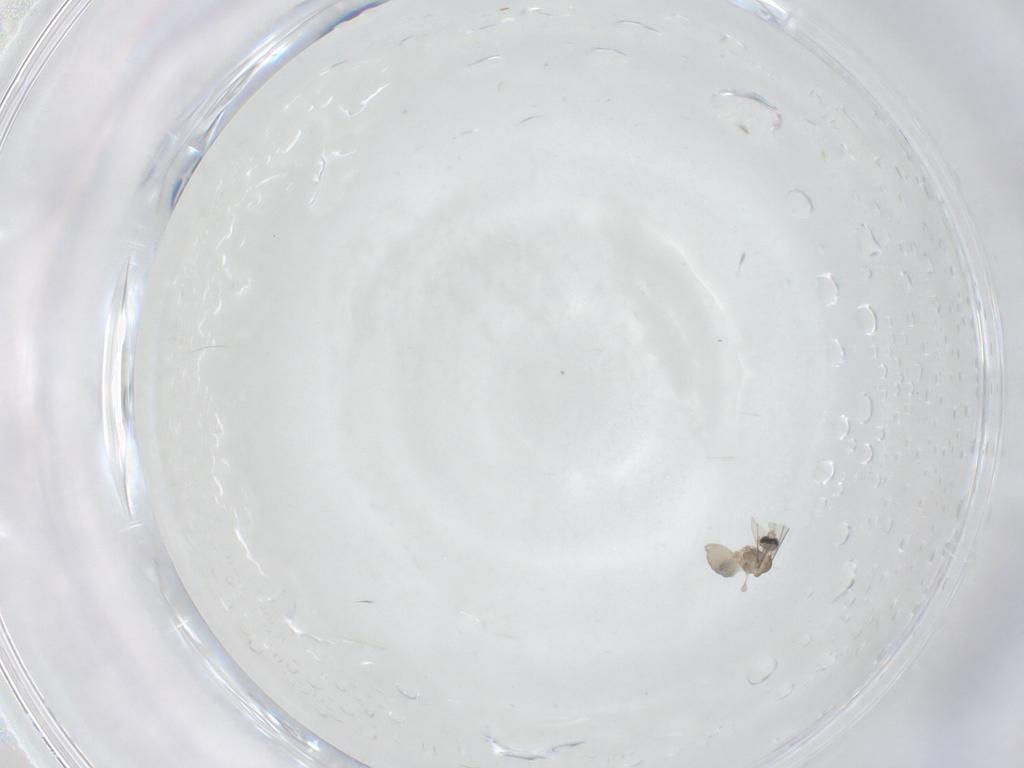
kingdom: Animalia
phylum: Arthropoda
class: Insecta
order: Diptera
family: Cecidomyiidae
